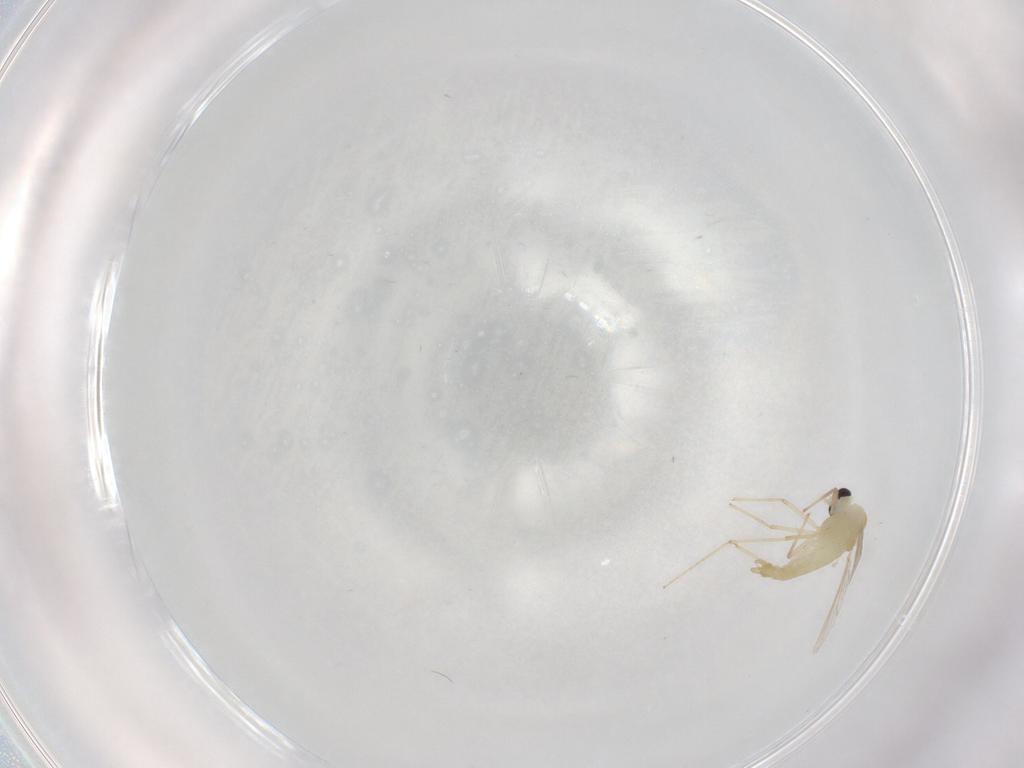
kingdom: Animalia
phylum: Arthropoda
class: Insecta
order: Diptera
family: Chironomidae
